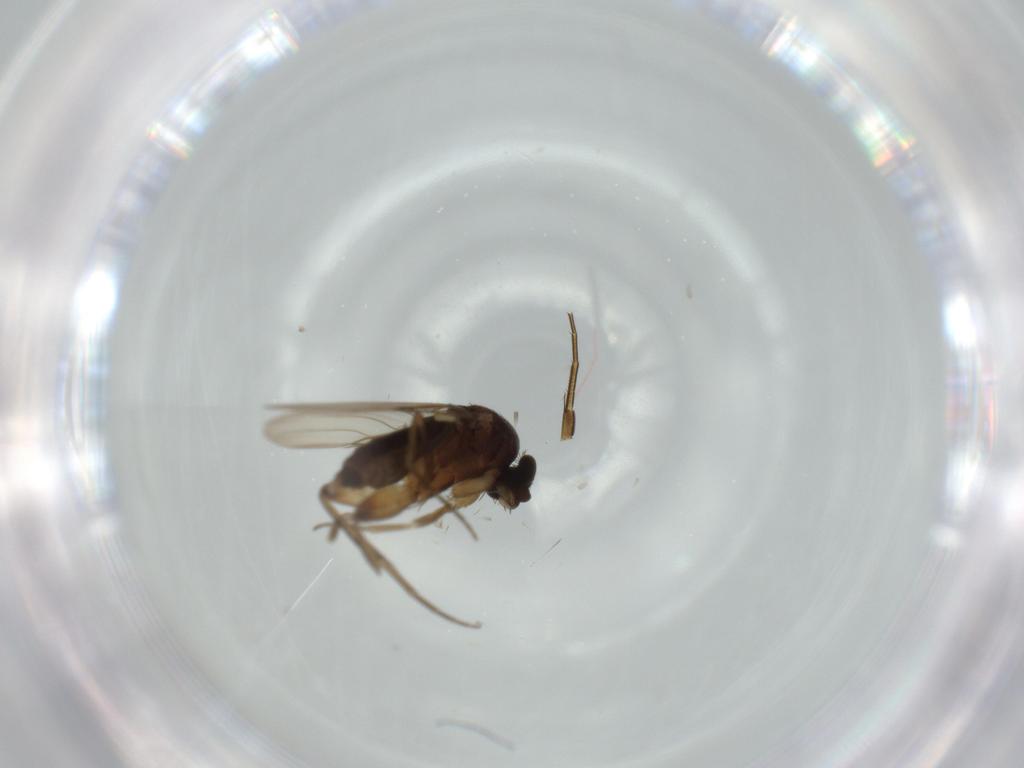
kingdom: Animalia
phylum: Arthropoda
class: Insecta
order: Diptera
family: Phoridae
